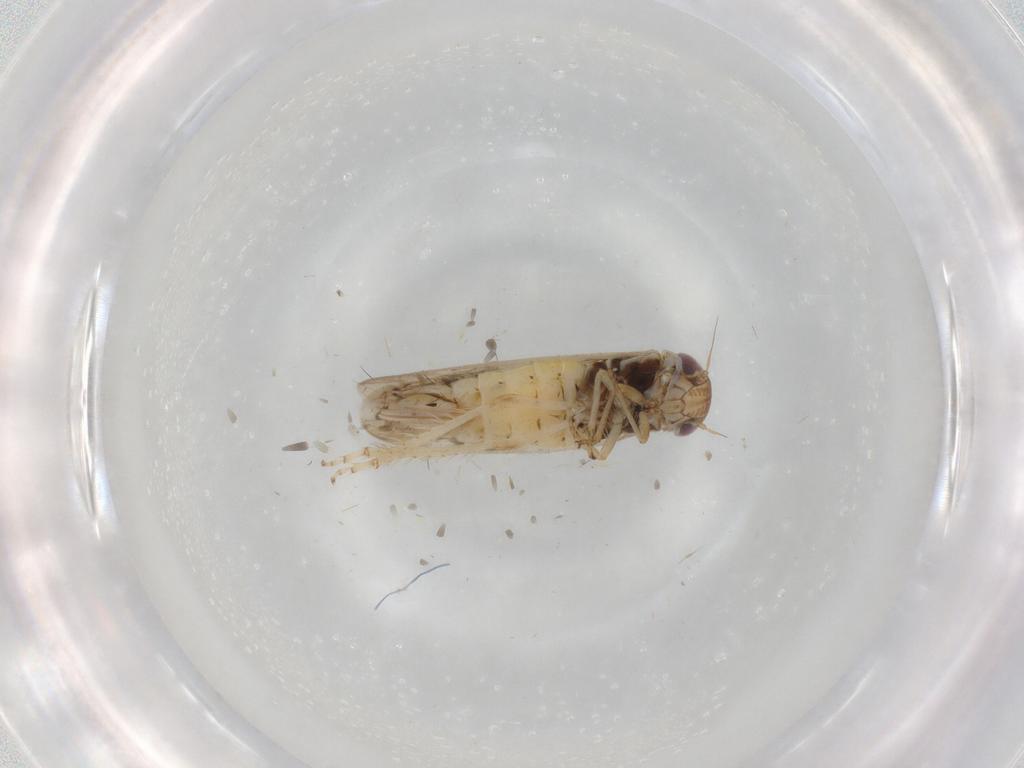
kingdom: Animalia
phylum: Arthropoda
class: Insecta
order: Hemiptera
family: Cicadellidae
